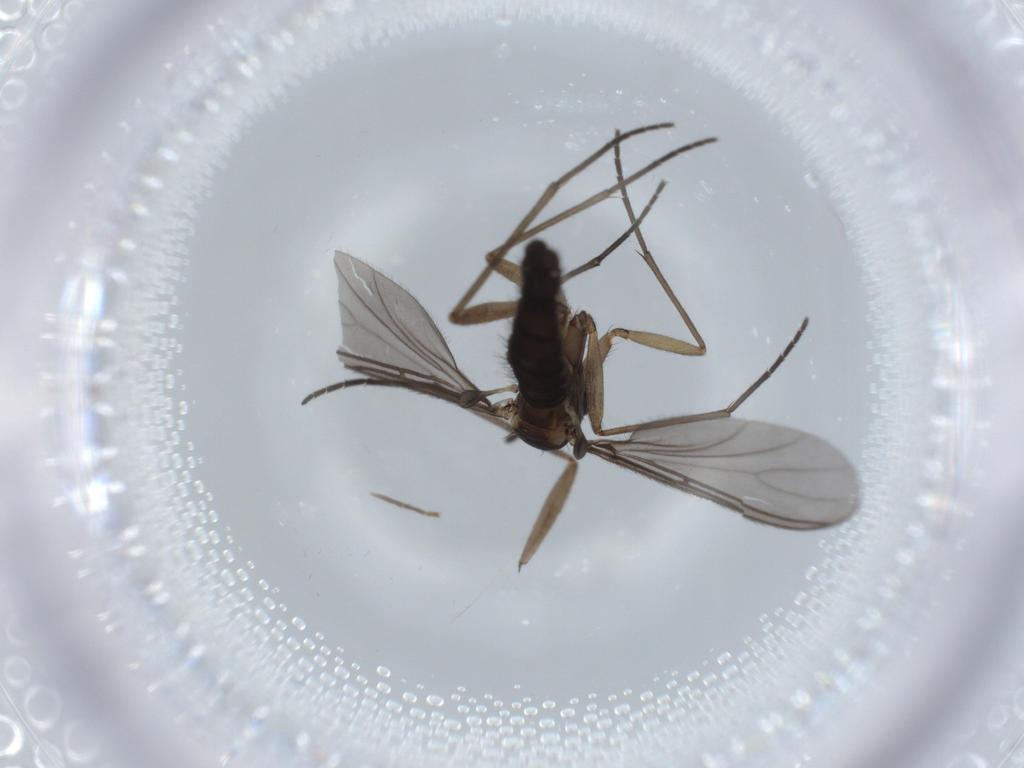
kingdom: Animalia
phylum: Arthropoda
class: Insecta
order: Diptera
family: Sciaridae
